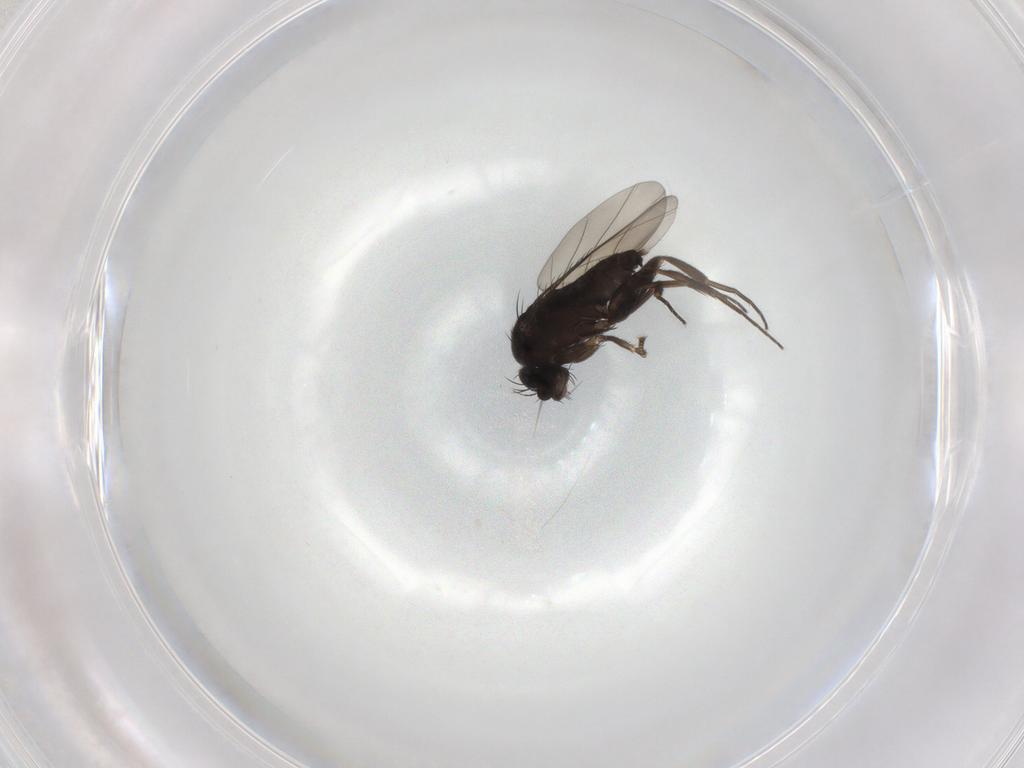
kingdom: Animalia
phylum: Arthropoda
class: Insecta
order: Diptera
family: Phoridae
